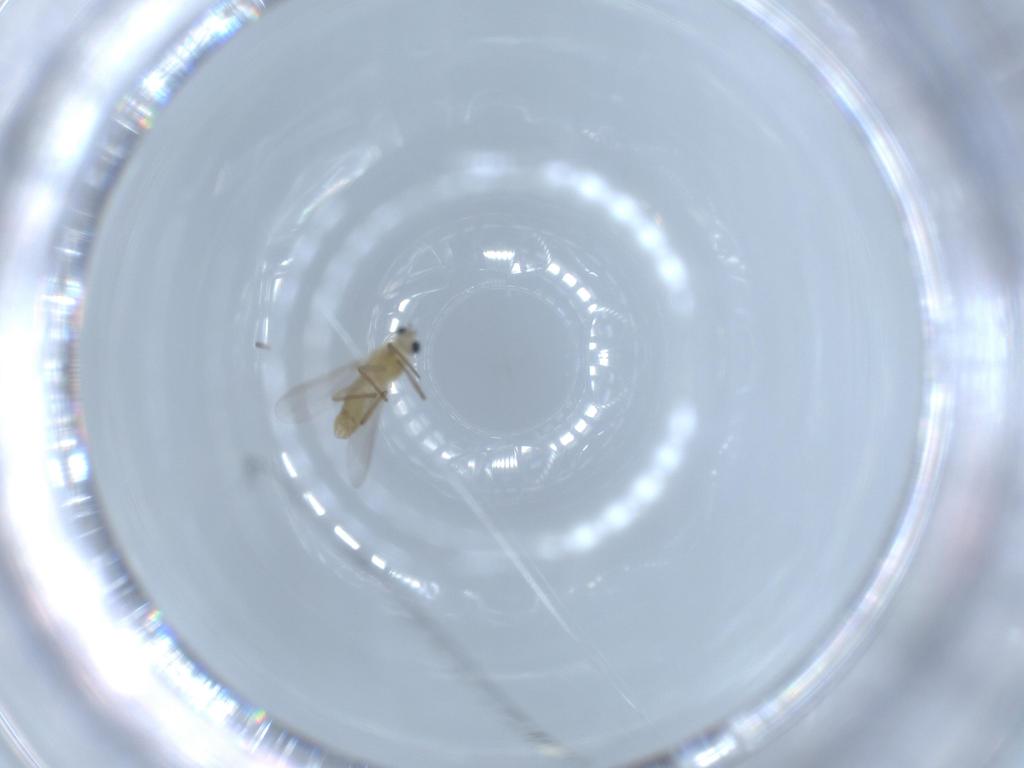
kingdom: Animalia
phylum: Arthropoda
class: Insecta
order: Diptera
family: Chironomidae
